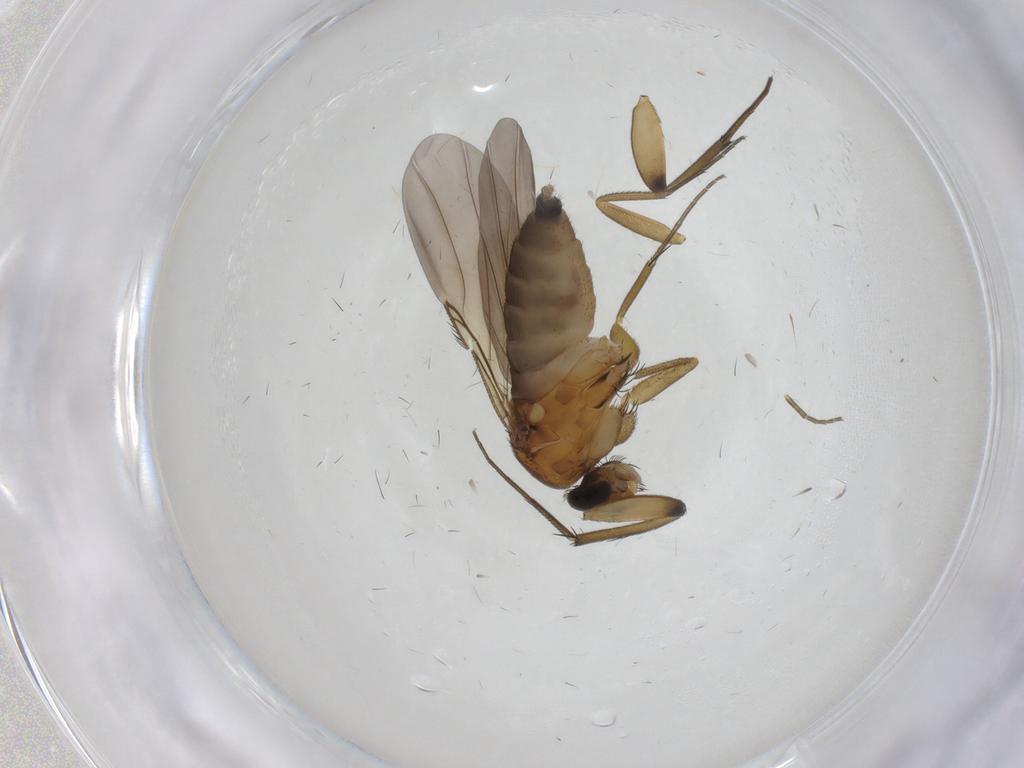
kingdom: Animalia
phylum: Arthropoda
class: Insecta
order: Diptera
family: Phoridae
